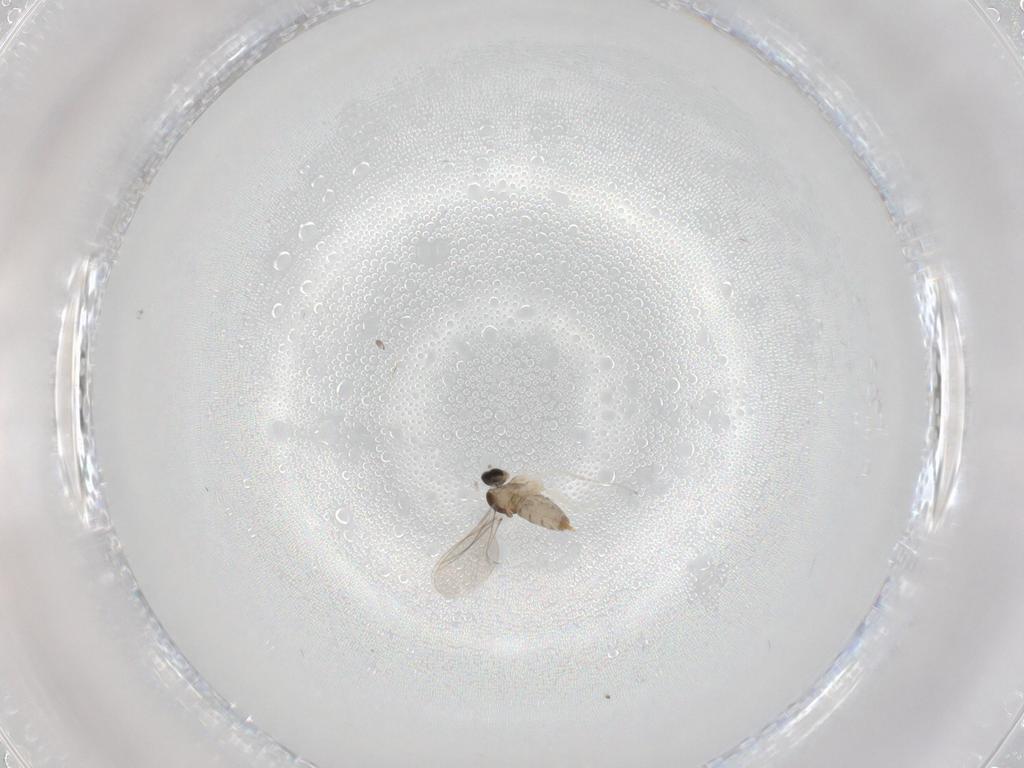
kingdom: Animalia
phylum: Arthropoda
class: Insecta
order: Diptera
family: Cecidomyiidae
